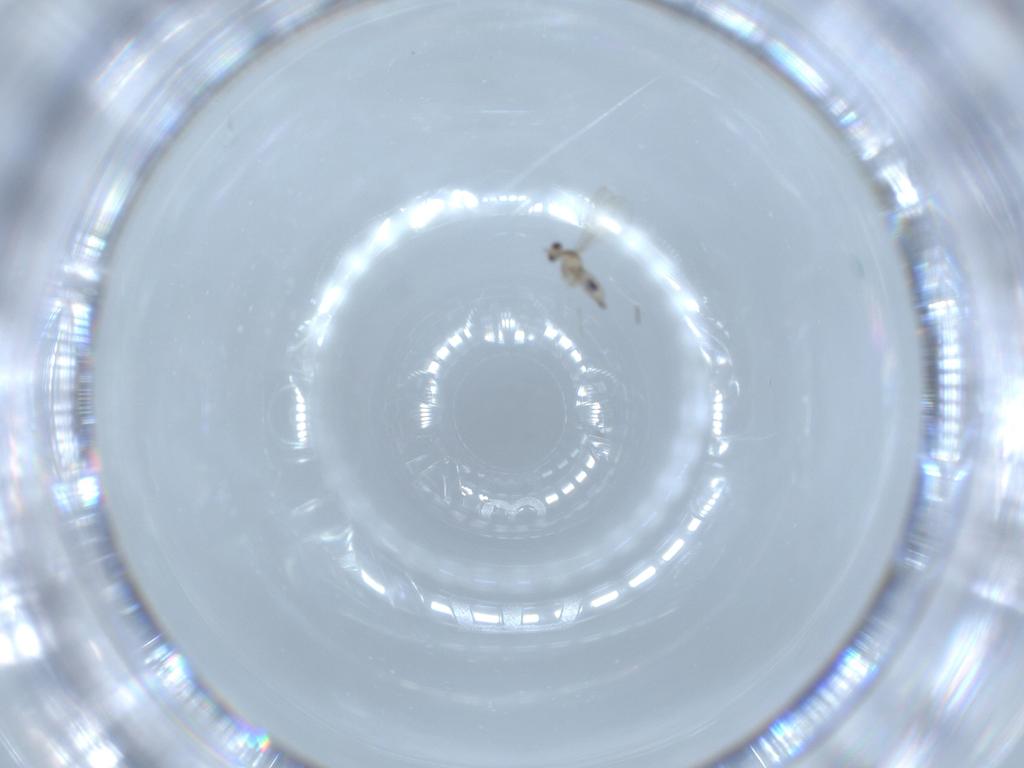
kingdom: Animalia
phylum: Arthropoda
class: Insecta
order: Diptera
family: Cecidomyiidae
